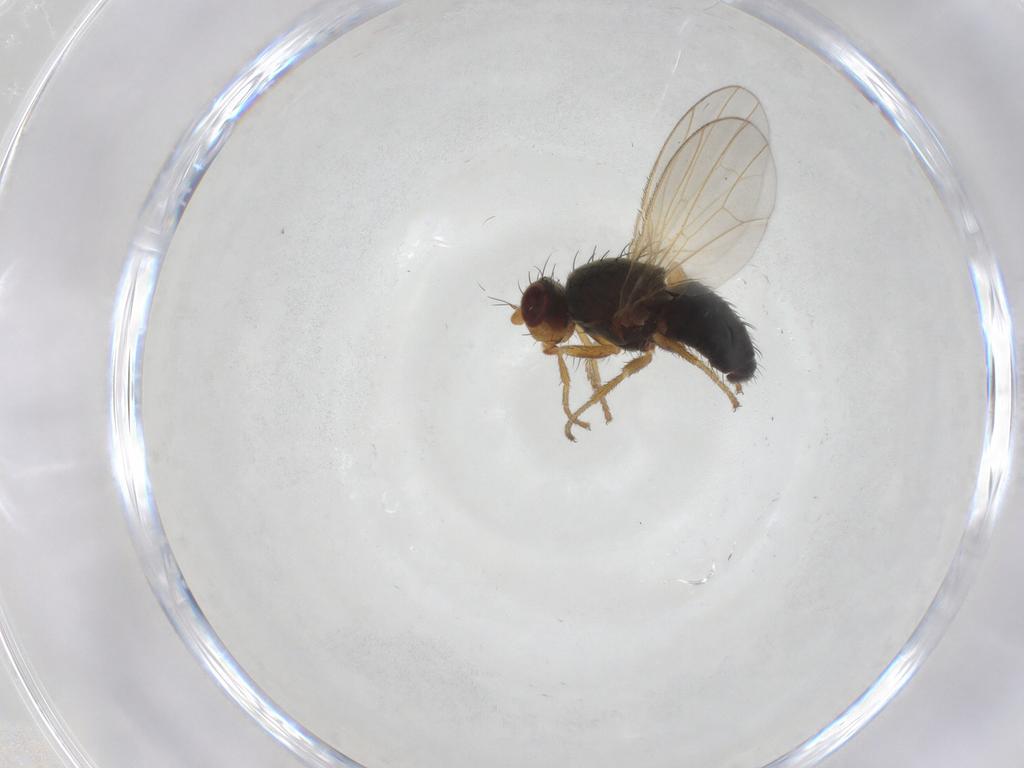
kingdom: Animalia
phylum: Arthropoda
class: Insecta
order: Diptera
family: Heleomyzidae
